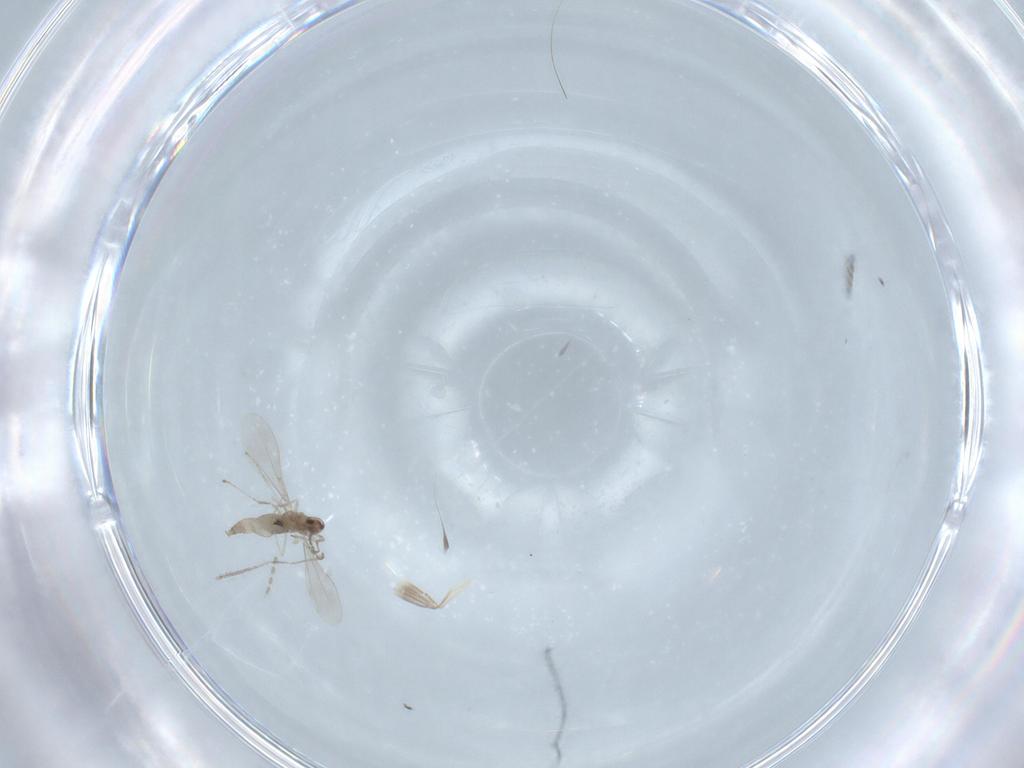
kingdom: Animalia
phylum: Arthropoda
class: Insecta
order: Diptera
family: Cecidomyiidae
